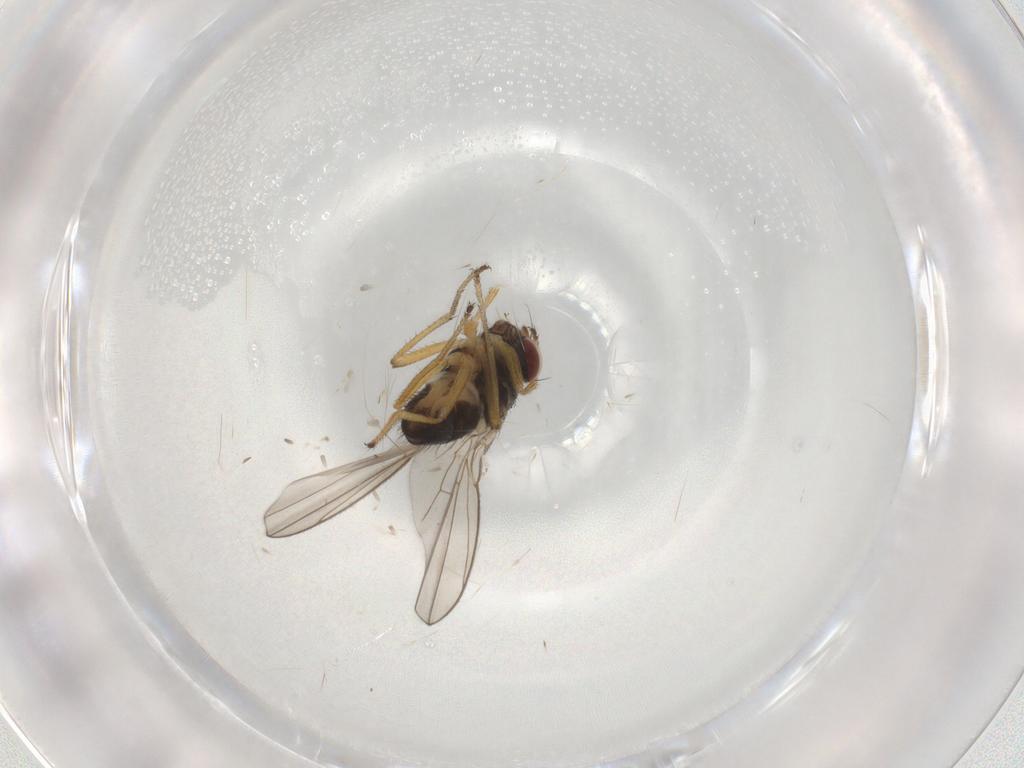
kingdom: Animalia
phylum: Arthropoda
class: Insecta
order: Diptera
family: Ephydridae
